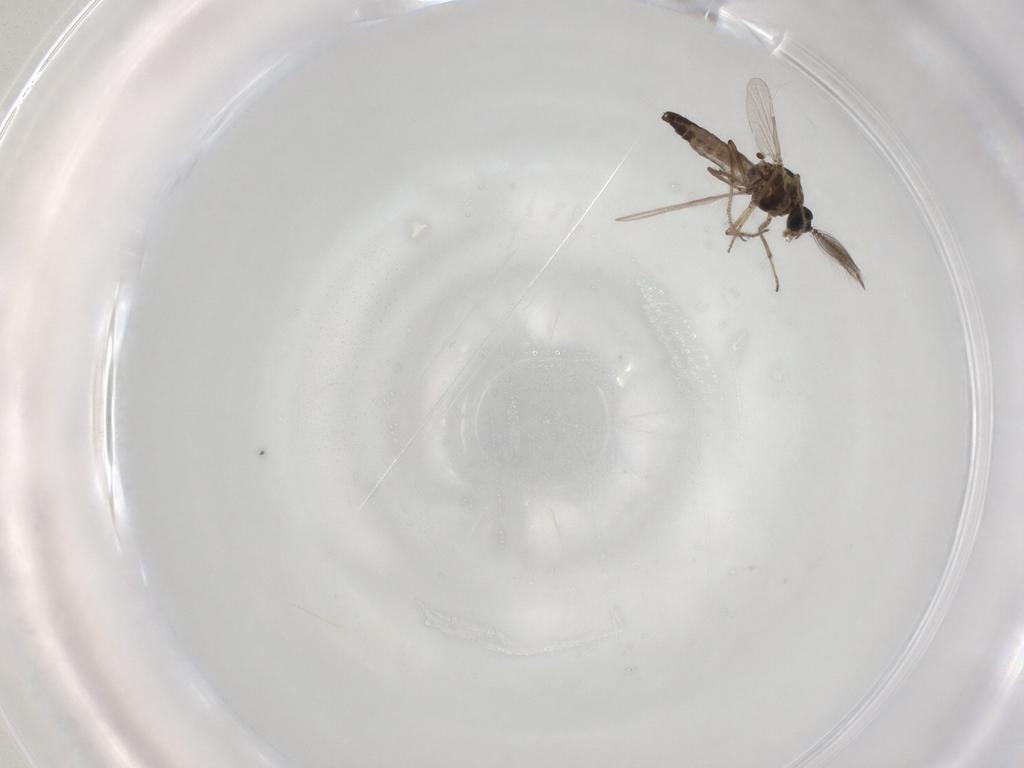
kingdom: Animalia
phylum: Arthropoda
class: Insecta
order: Diptera
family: Ceratopogonidae
